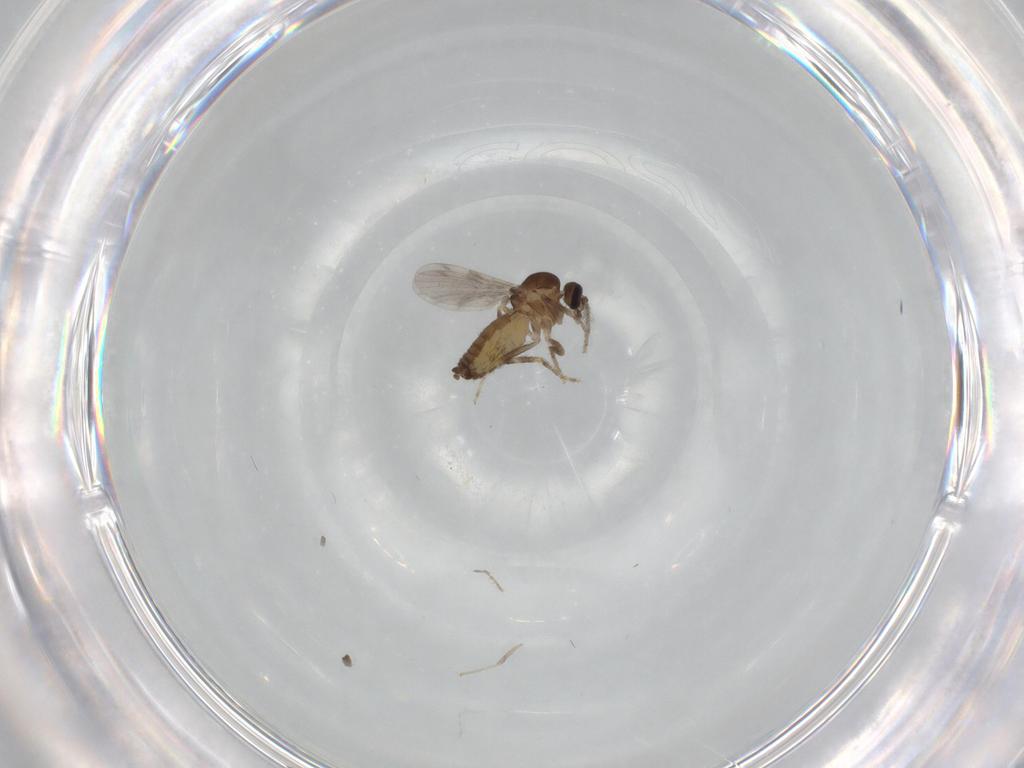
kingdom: Animalia
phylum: Arthropoda
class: Insecta
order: Diptera
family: Ceratopogonidae
